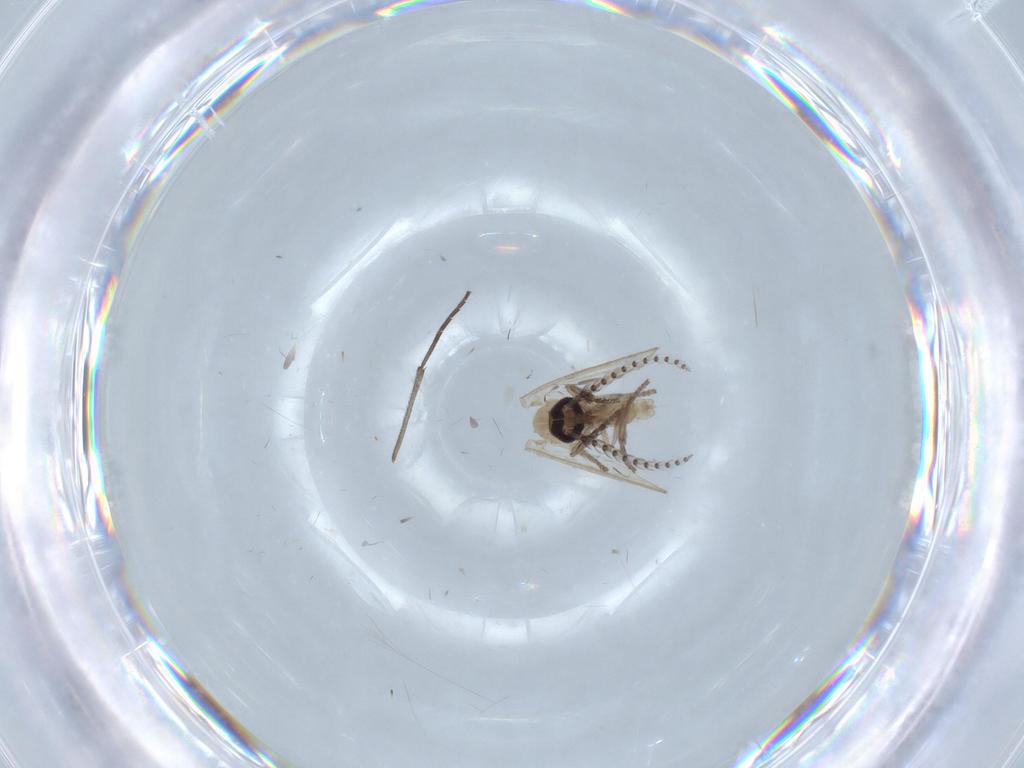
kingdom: Animalia
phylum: Arthropoda
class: Insecta
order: Diptera
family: Psychodidae
